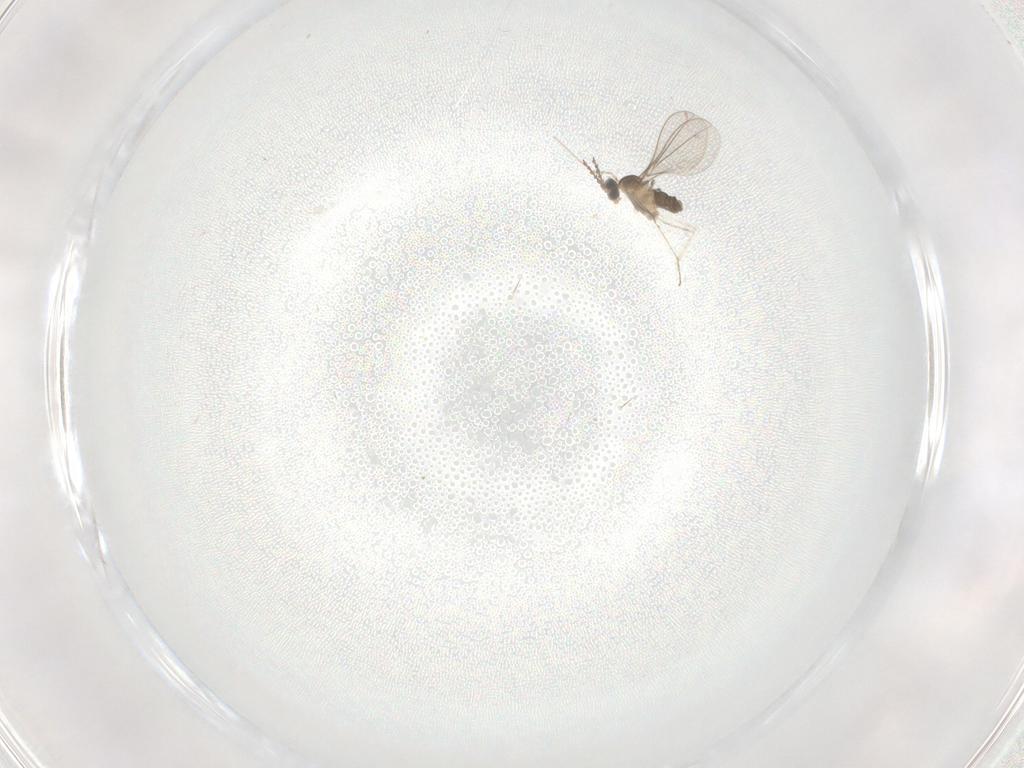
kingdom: Animalia
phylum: Arthropoda
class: Insecta
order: Diptera
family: Cecidomyiidae
